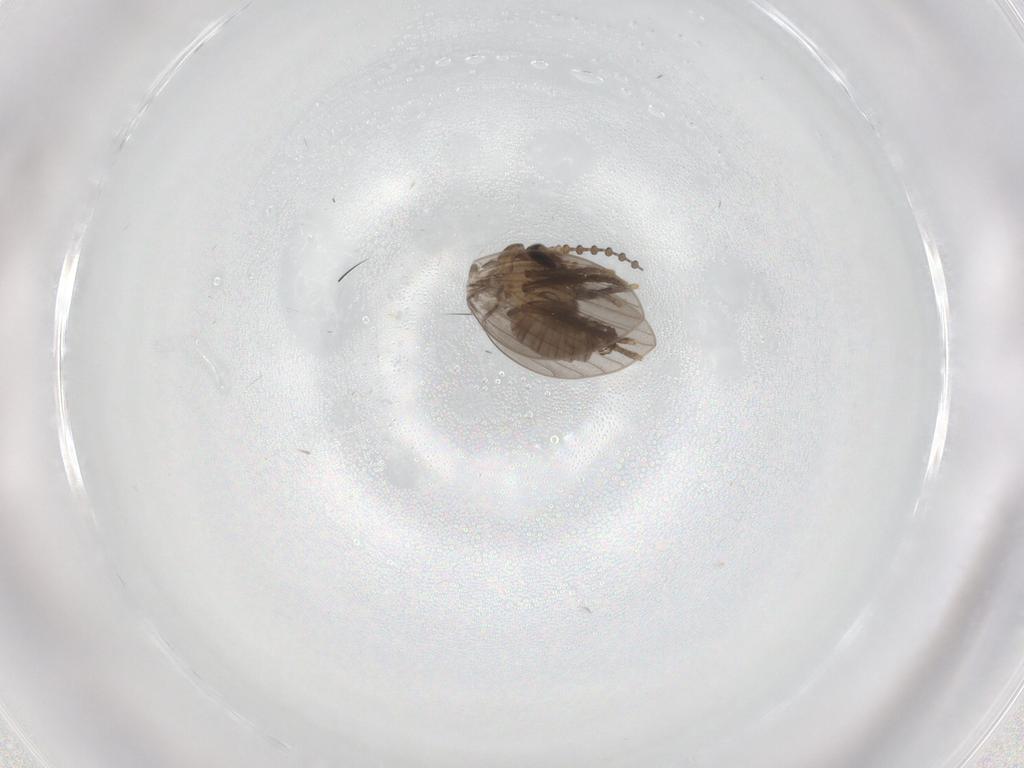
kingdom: Animalia
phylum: Arthropoda
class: Insecta
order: Diptera
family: Psychodidae
